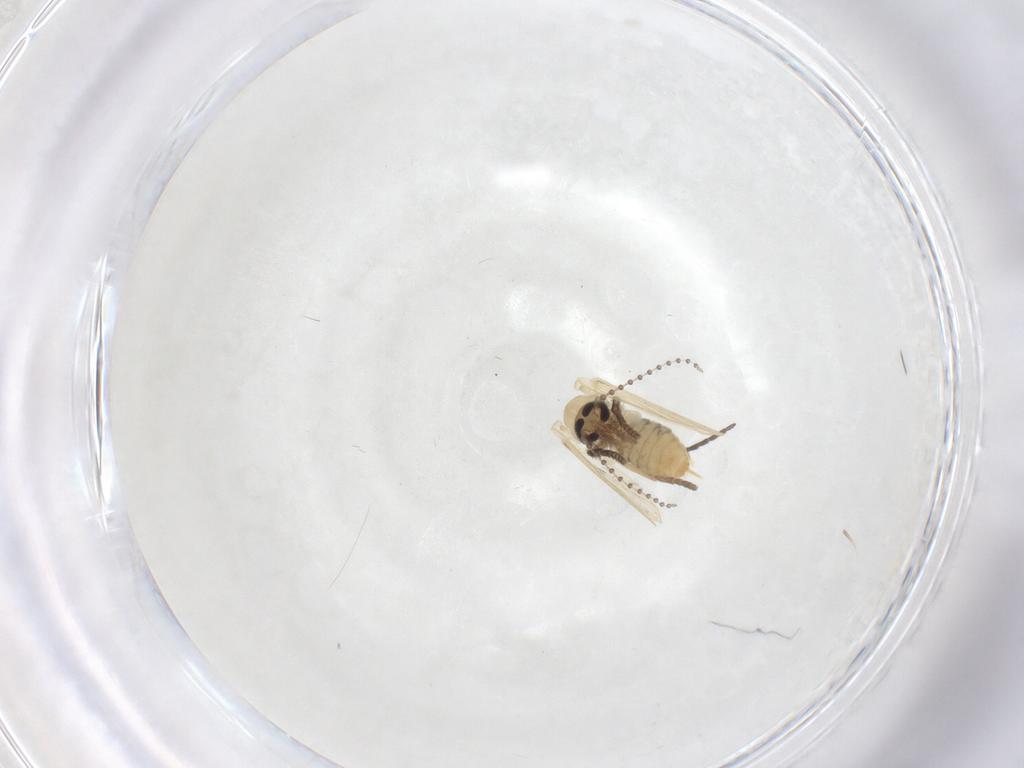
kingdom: Animalia
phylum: Arthropoda
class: Insecta
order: Diptera
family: Psychodidae
